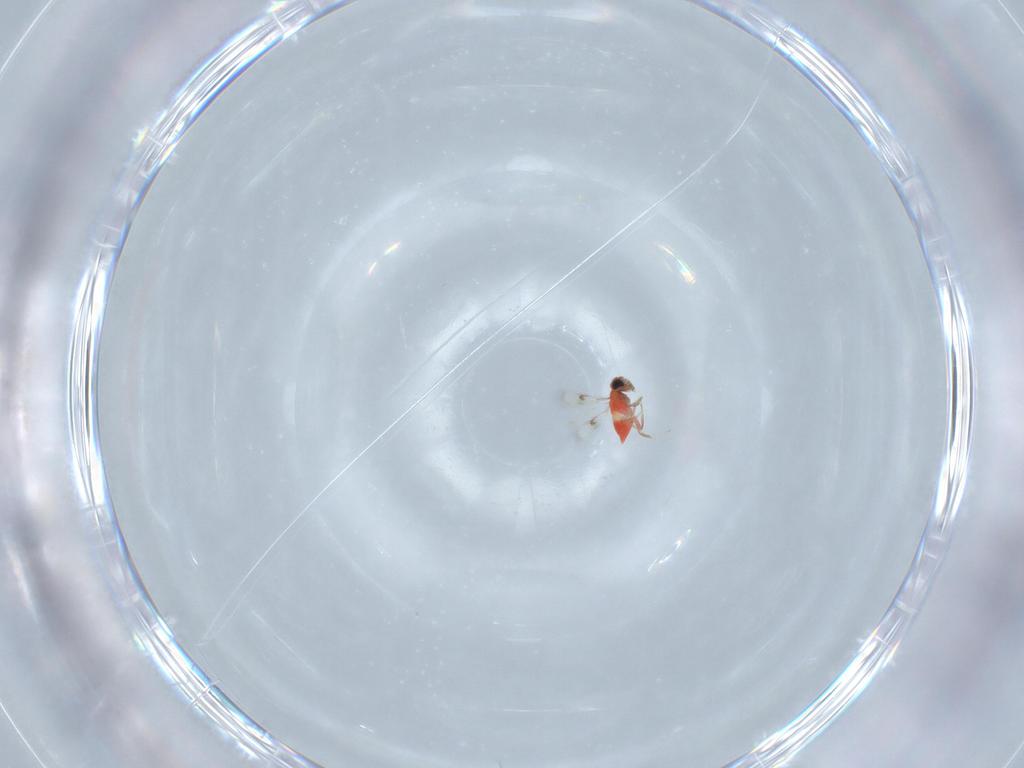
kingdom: Animalia
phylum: Arthropoda
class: Insecta
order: Hymenoptera
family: Trichogrammatidae
